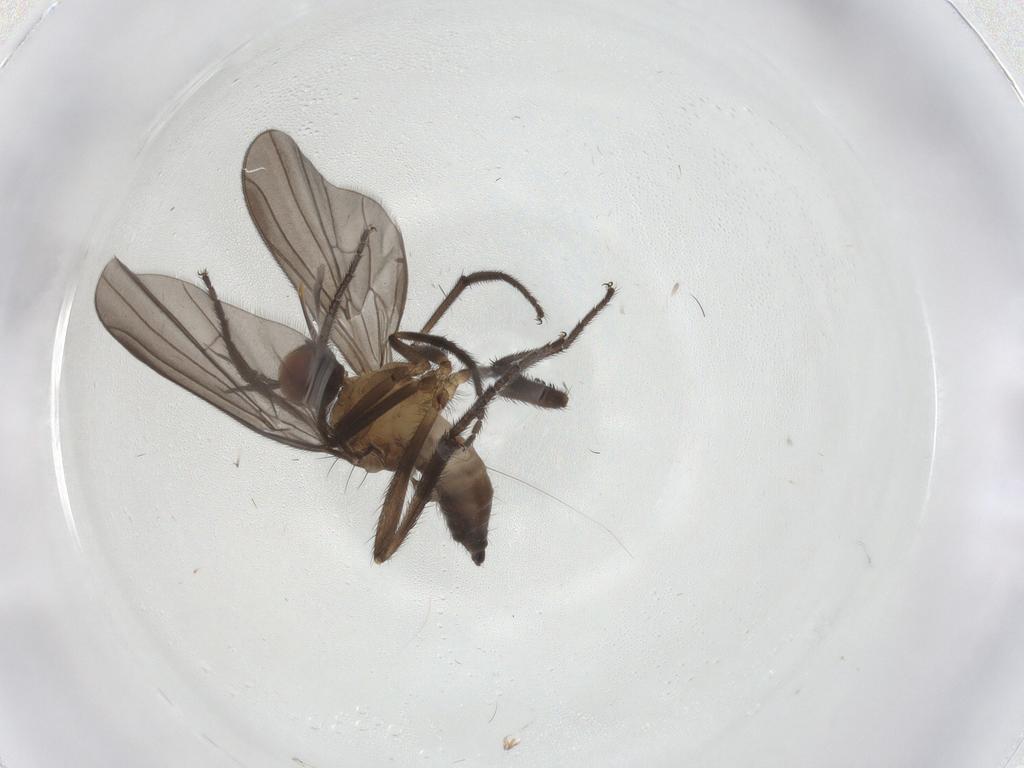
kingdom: Animalia
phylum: Arthropoda
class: Insecta
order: Diptera
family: Empididae
